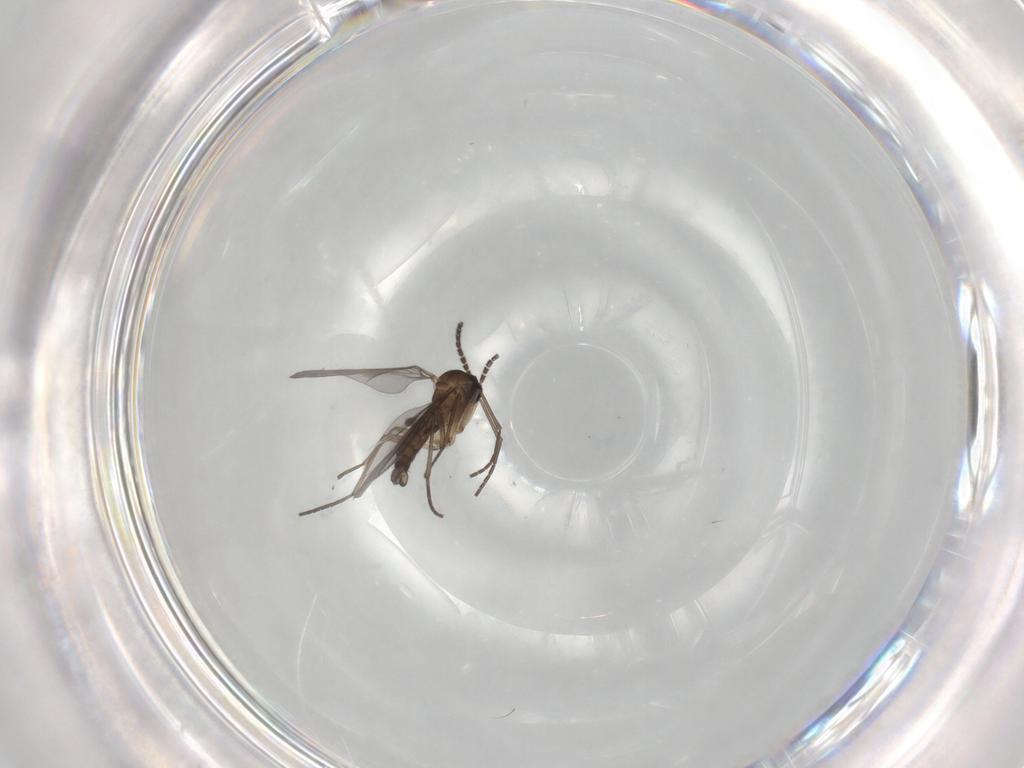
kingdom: Animalia
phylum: Arthropoda
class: Insecta
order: Diptera
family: Sciaridae
